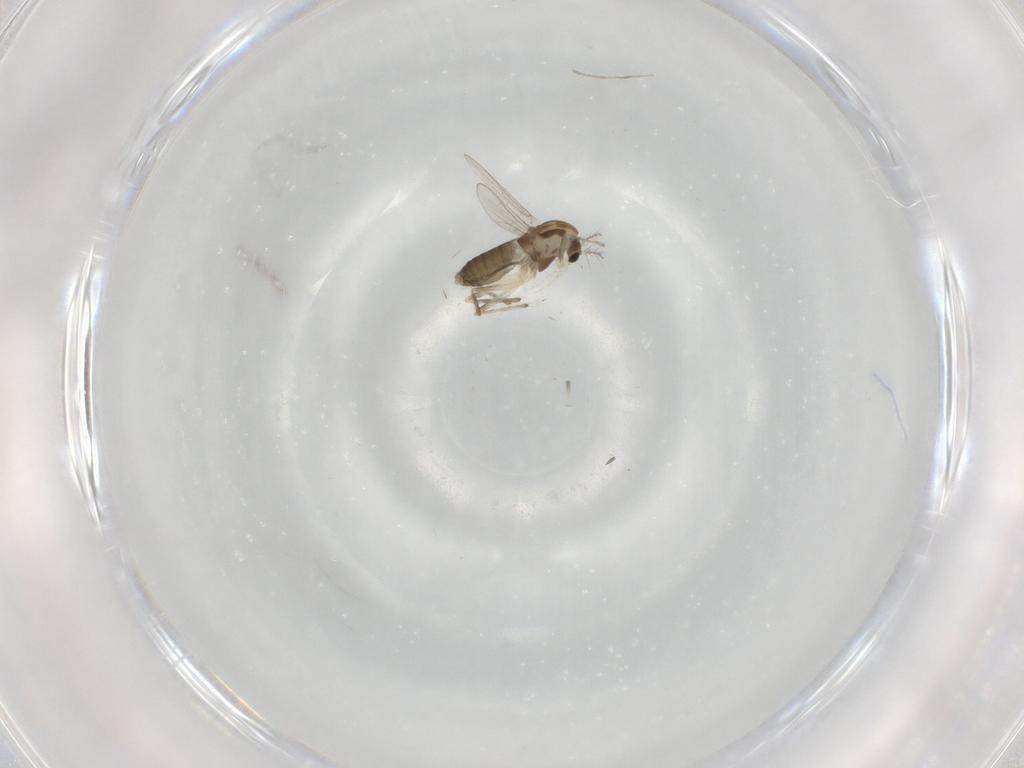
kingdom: Animalia
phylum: Arthropoda
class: Insecta
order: Diptera
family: Chironomidae
